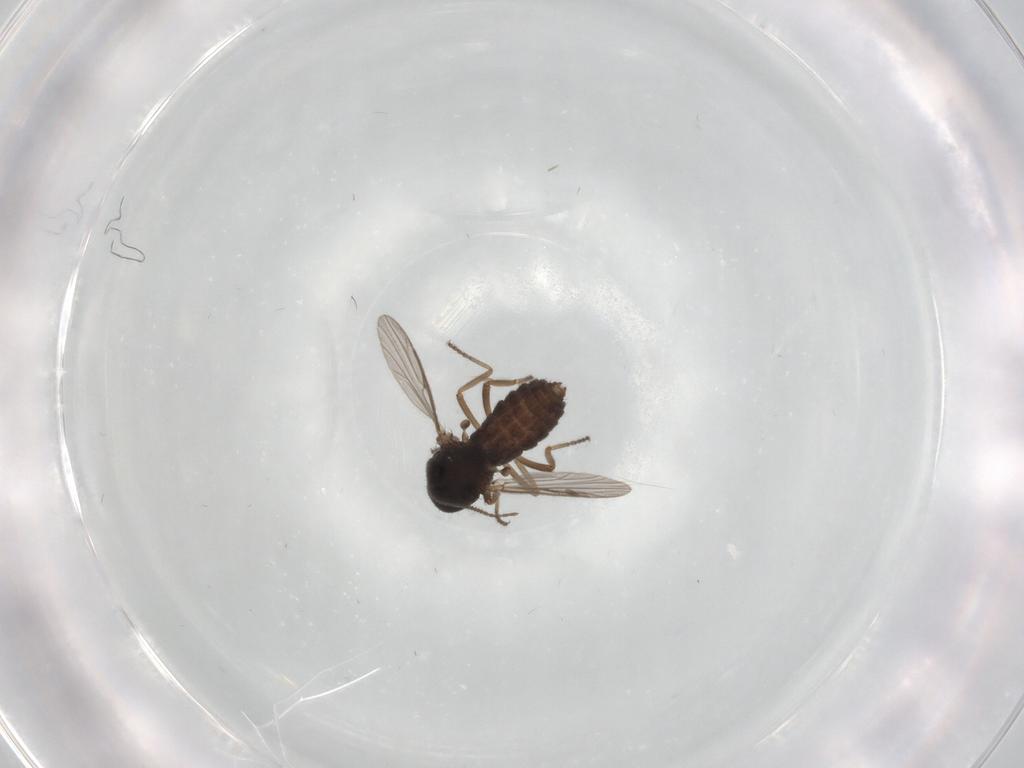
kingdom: Animalia
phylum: Arthropoda
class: Insecta
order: Diptera
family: Ceratopogonidae
